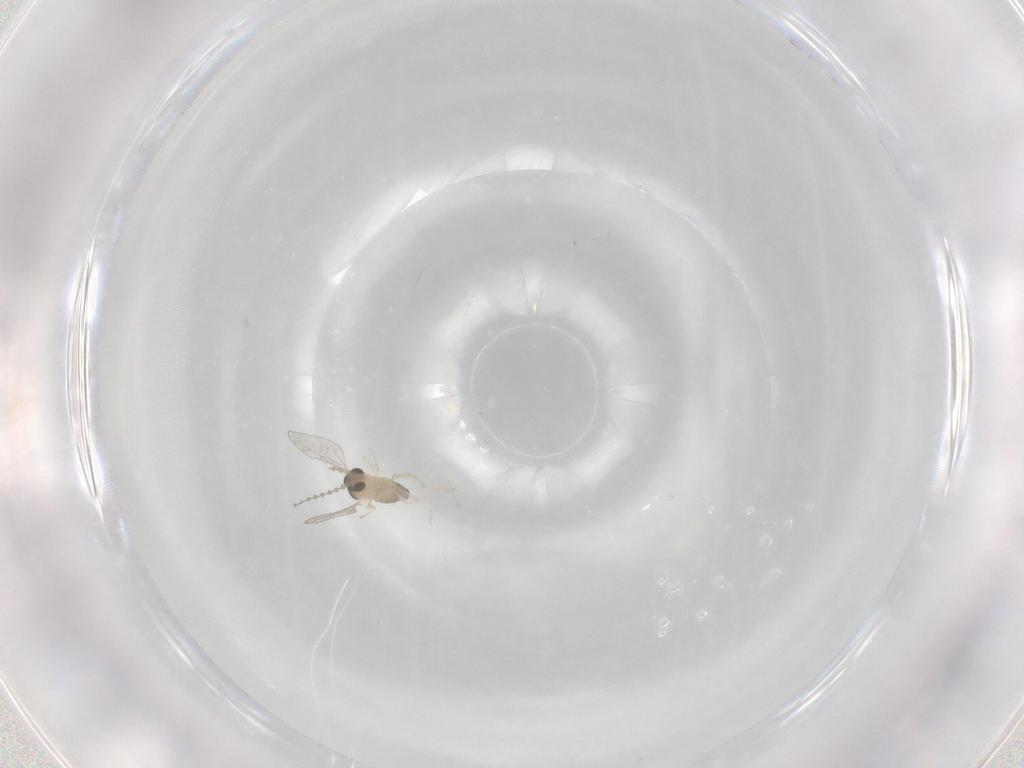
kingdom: Animalia
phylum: Arthropoda
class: Insecta
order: Diptera
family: Cecidomyiidae
